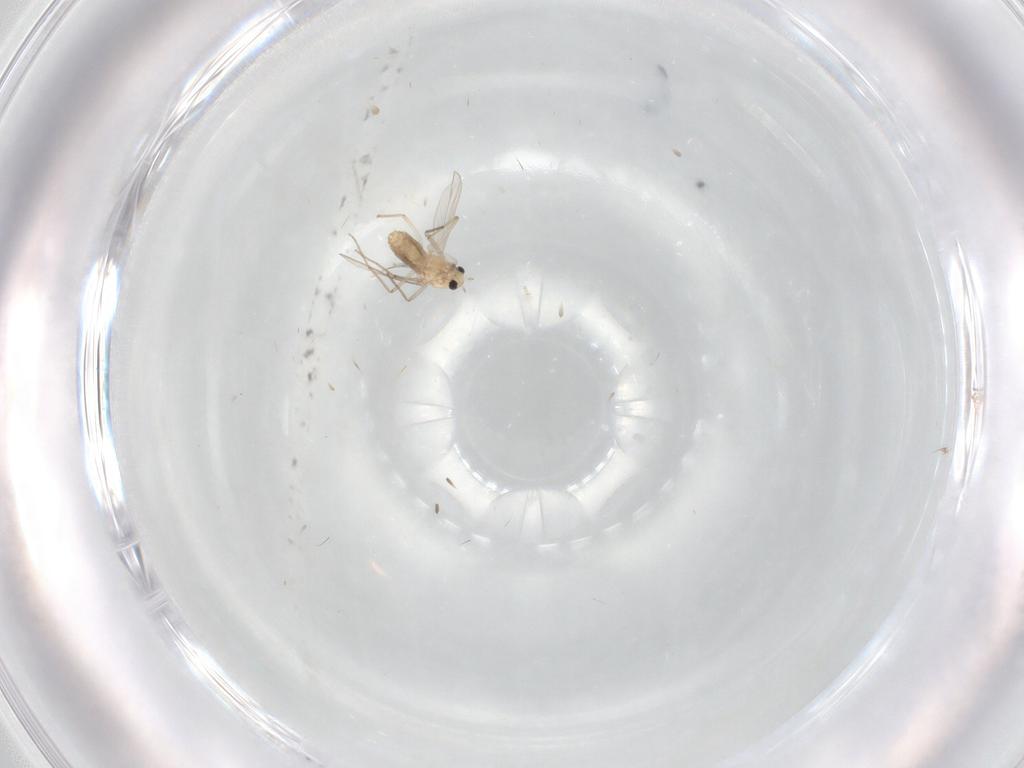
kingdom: Animalia
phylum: Arthropoda
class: Insecta
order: Diptera
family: Chironomidae
